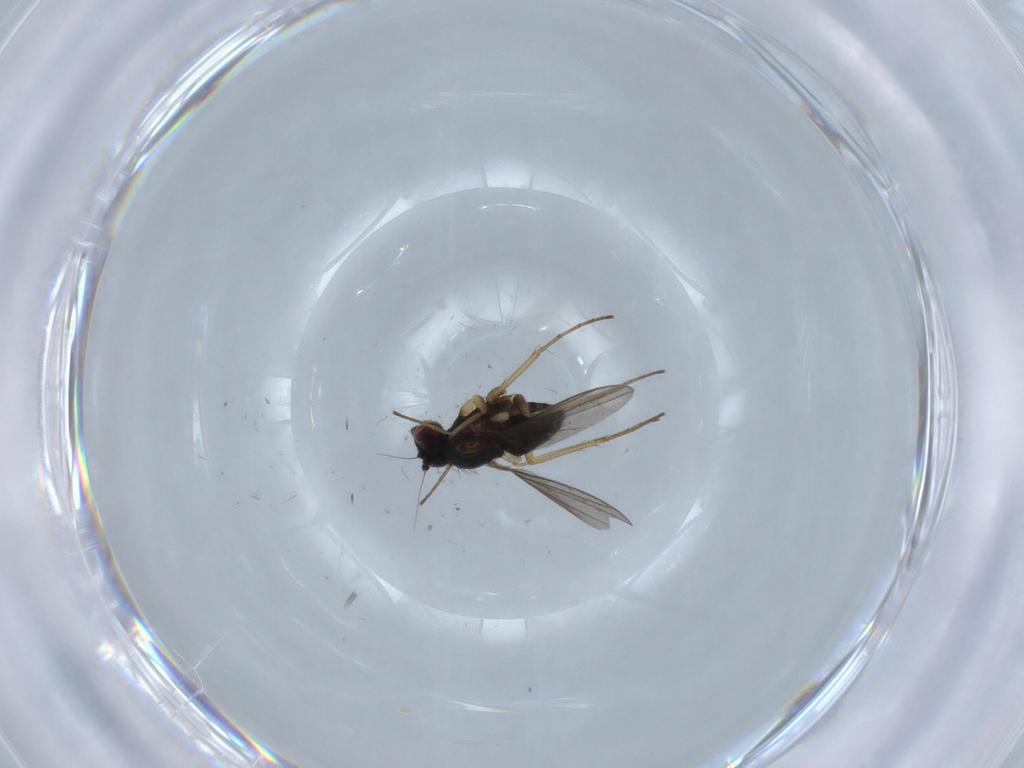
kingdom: Animalia
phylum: Arthropoda
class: Insecta
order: Diptera
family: Dolichopodidae
